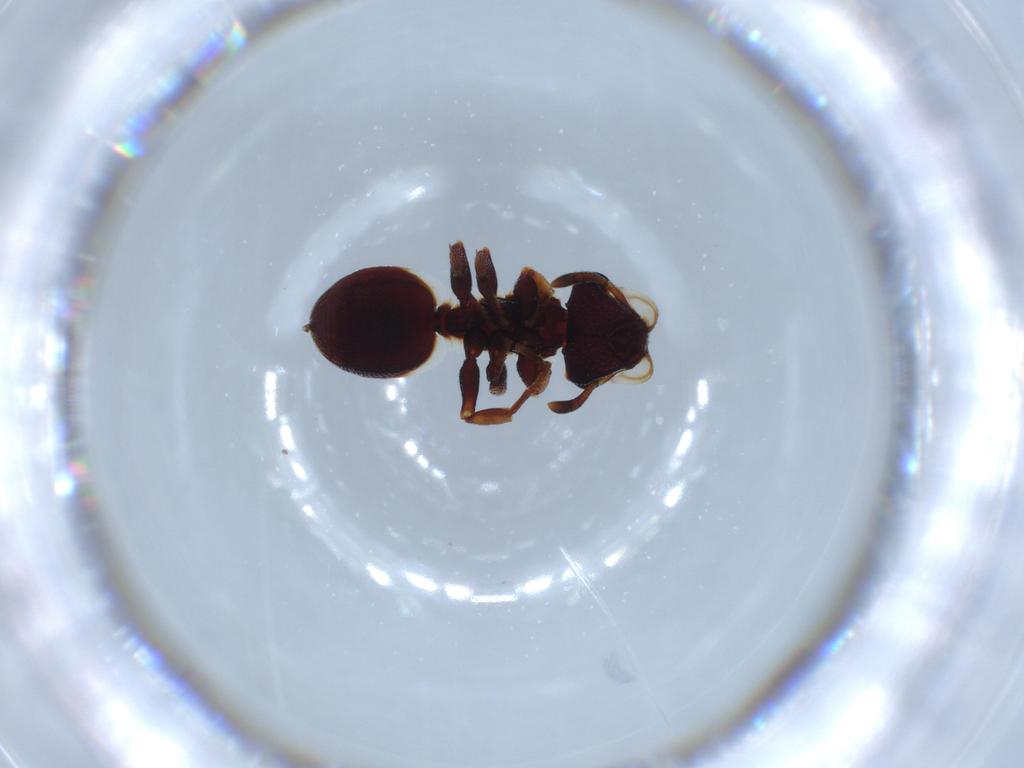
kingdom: Animalia
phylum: Arthropoda
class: Insecta
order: Hymenoptera
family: Formicidae
